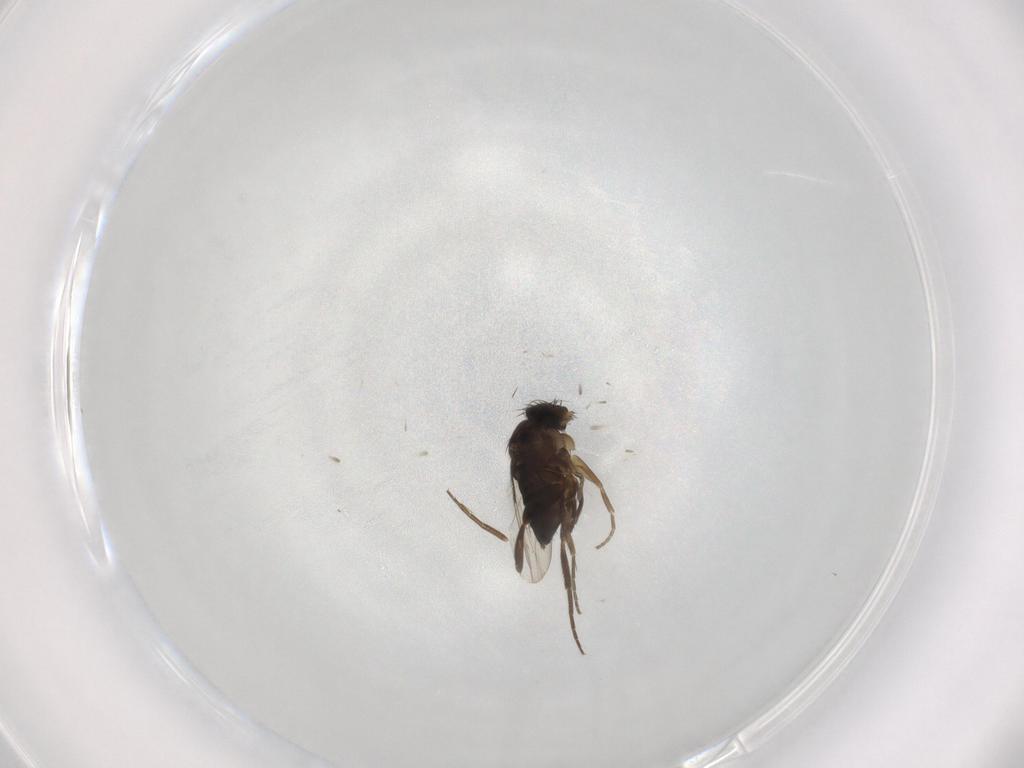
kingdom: Animalia
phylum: Arthropoda
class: Insecta
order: Diptera
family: Phoridae
